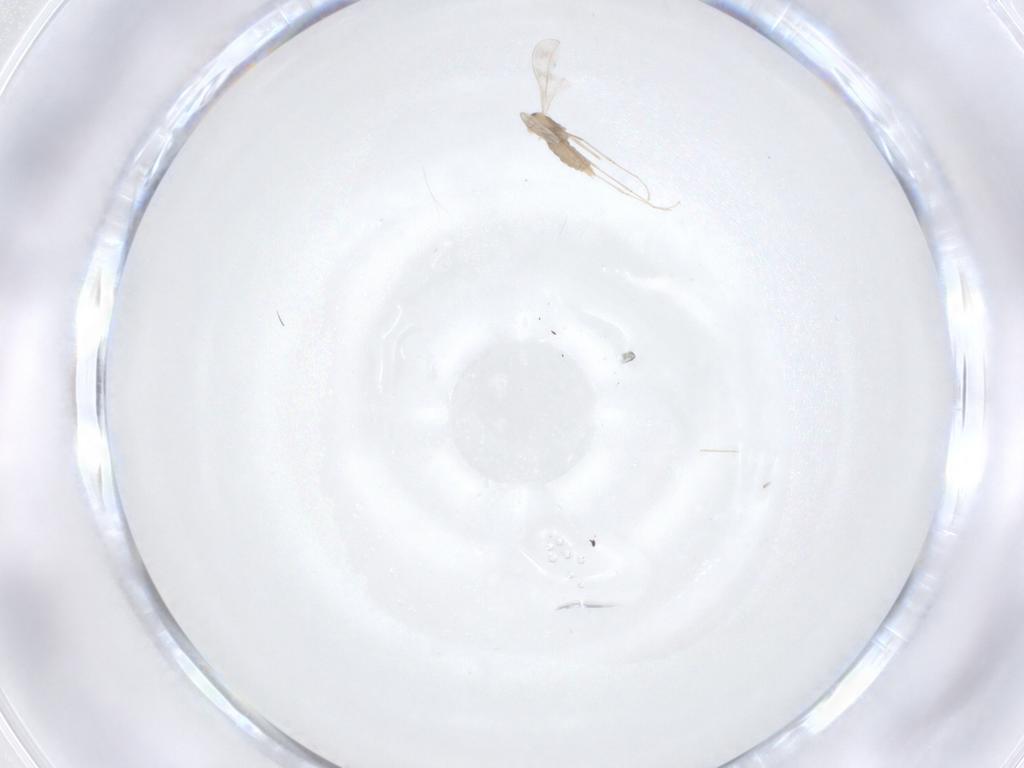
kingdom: Animalia
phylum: Arthropoda
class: Insecta
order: Diptera
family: Cecidomyiidae
